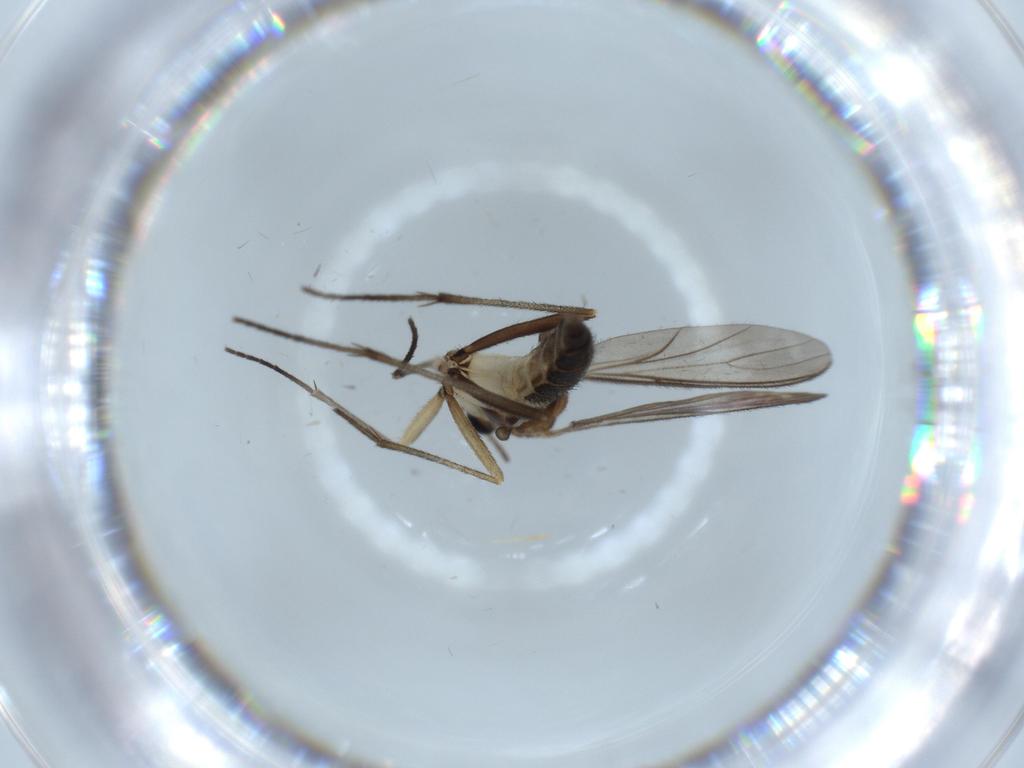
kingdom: Animalia
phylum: Arthropoda
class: Insecta
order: Diptera
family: Sciaridae
